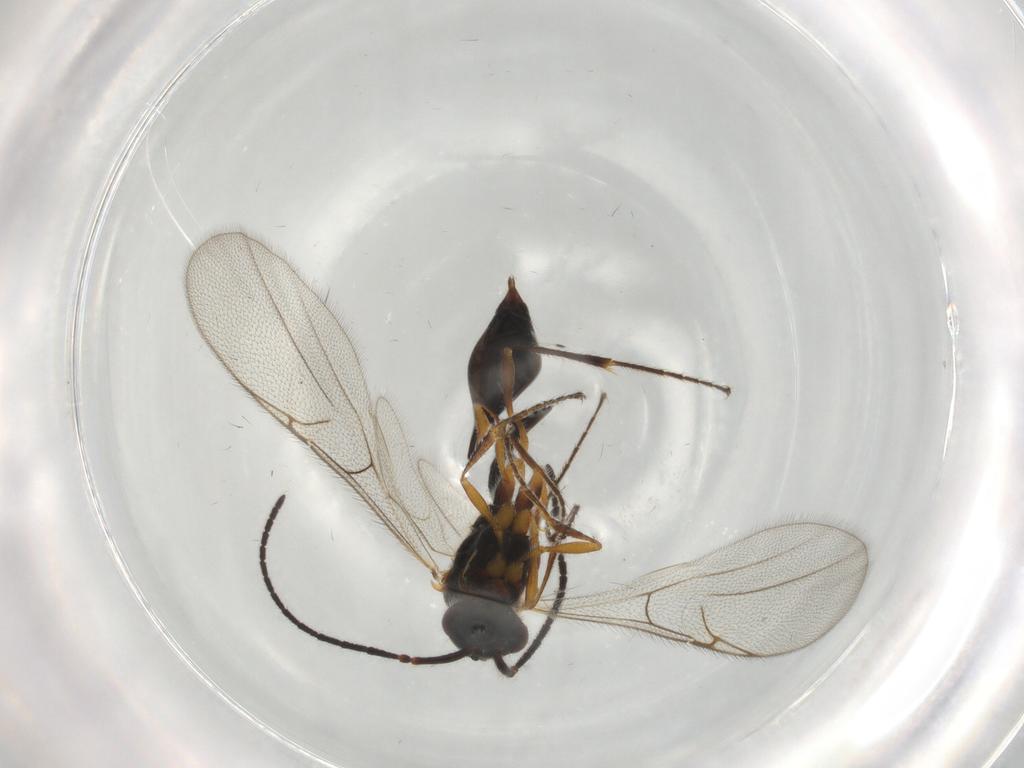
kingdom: Animalia
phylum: Arthropoda
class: Insecta
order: Hymenoptera
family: Diapriidae
